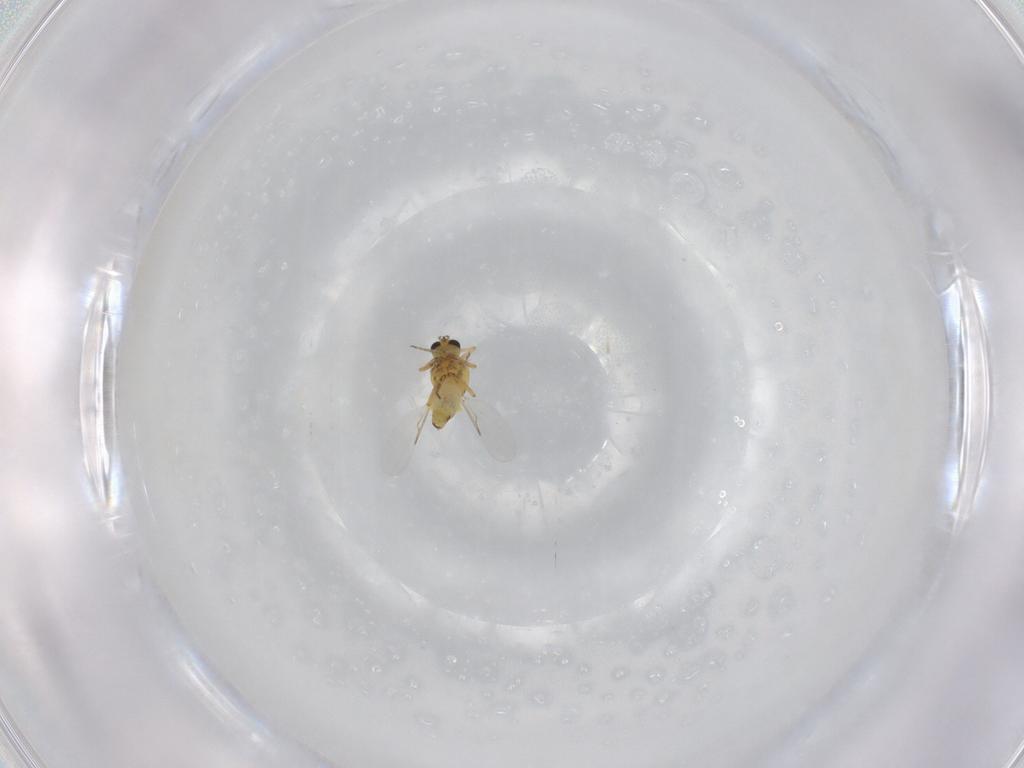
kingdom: Animalia
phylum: Arthropoda
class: Insecta
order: Diptera
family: Ceratopogonidae
